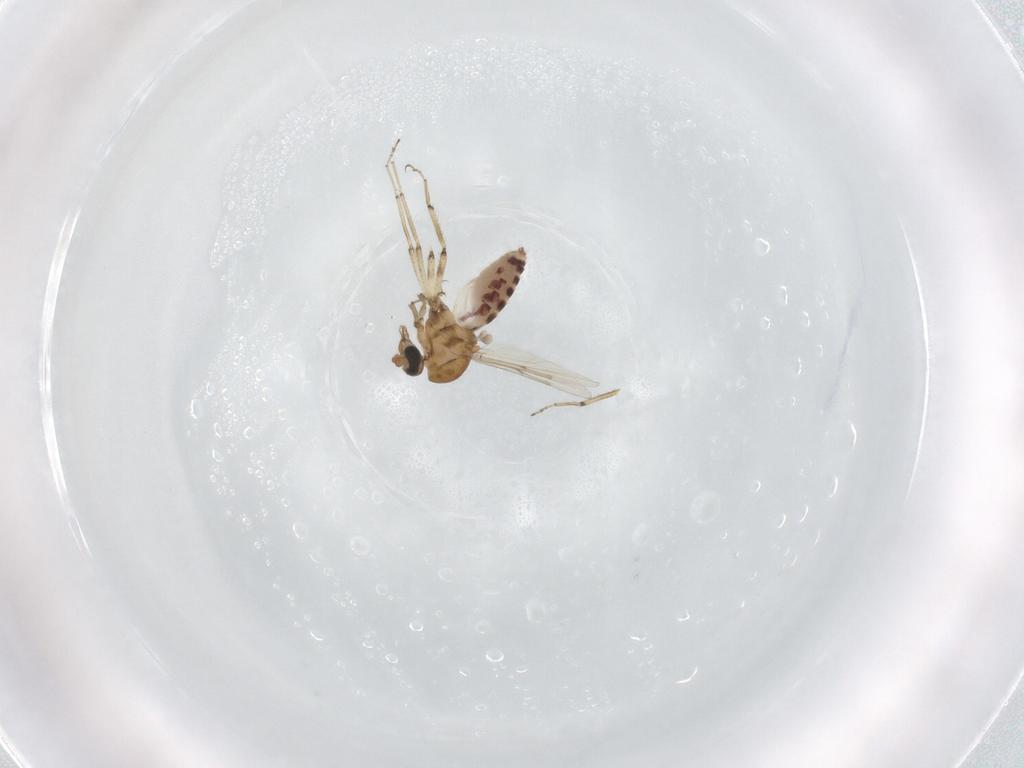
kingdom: Animalia
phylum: Arthropoda
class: Insecta
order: Diptera
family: Ceratopogonidae
